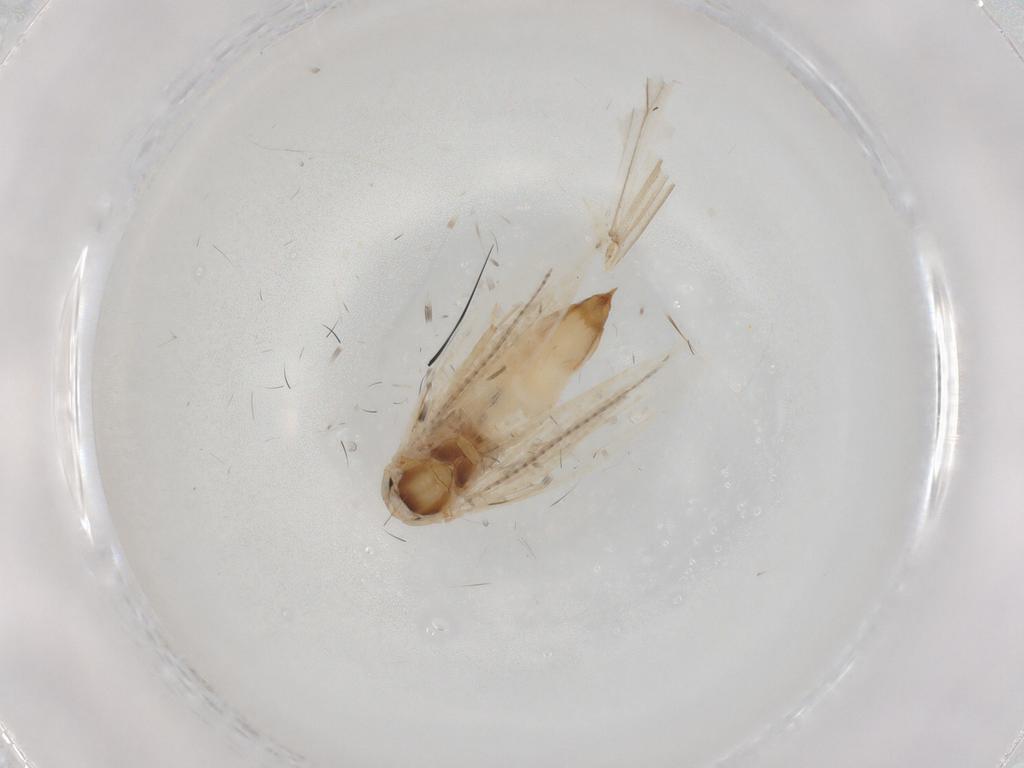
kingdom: Animalia
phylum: Arthropoda
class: Insecta
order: Lepidoptera
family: Bucculatricidae
